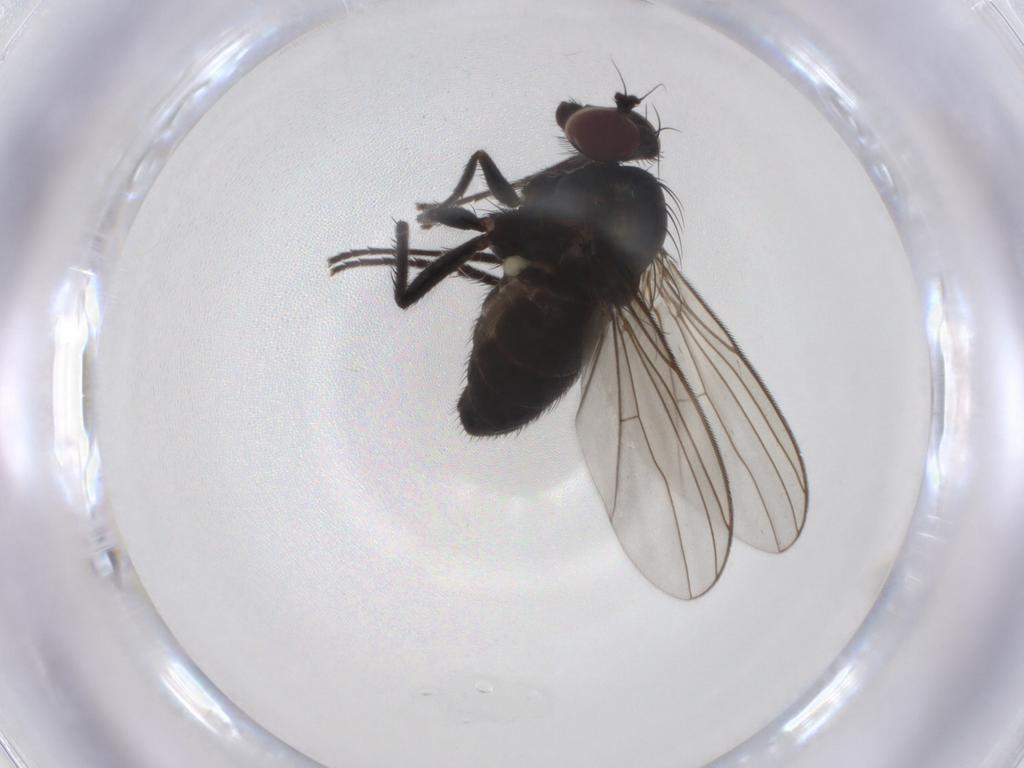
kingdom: Animalia
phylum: Arthropoda
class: Insecta
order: Diptera
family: Dolichopodidae
